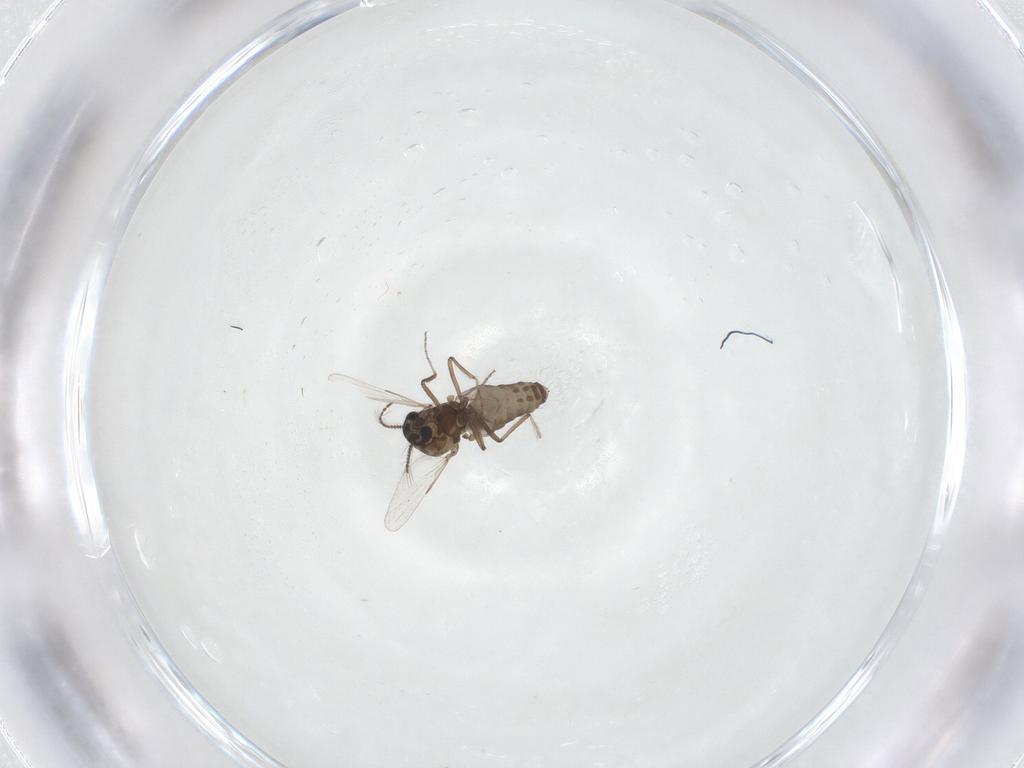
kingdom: Animalia
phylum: Arthropoda
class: Insecta
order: Diptera
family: Ceratopogonidae
